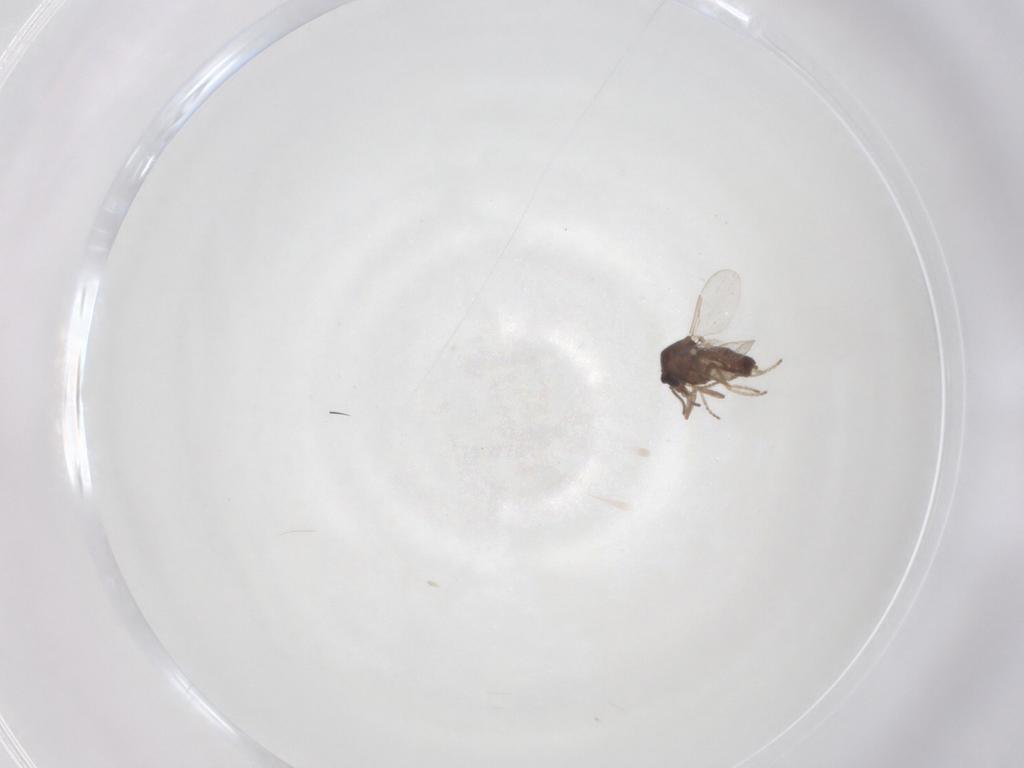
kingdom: Animalia
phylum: Arthropoda
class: Insecta
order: Diptera
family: Ceratopogonidae
